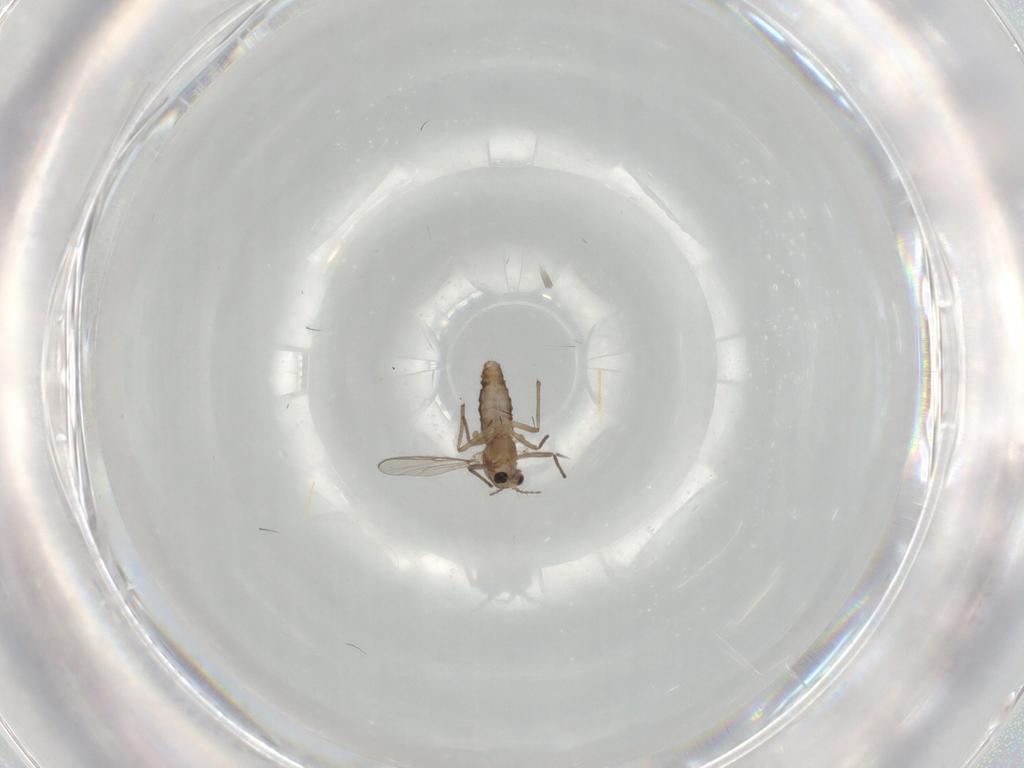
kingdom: Animalia
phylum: Arthropoda
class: Insecta
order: Diptera
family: Chironomidae
